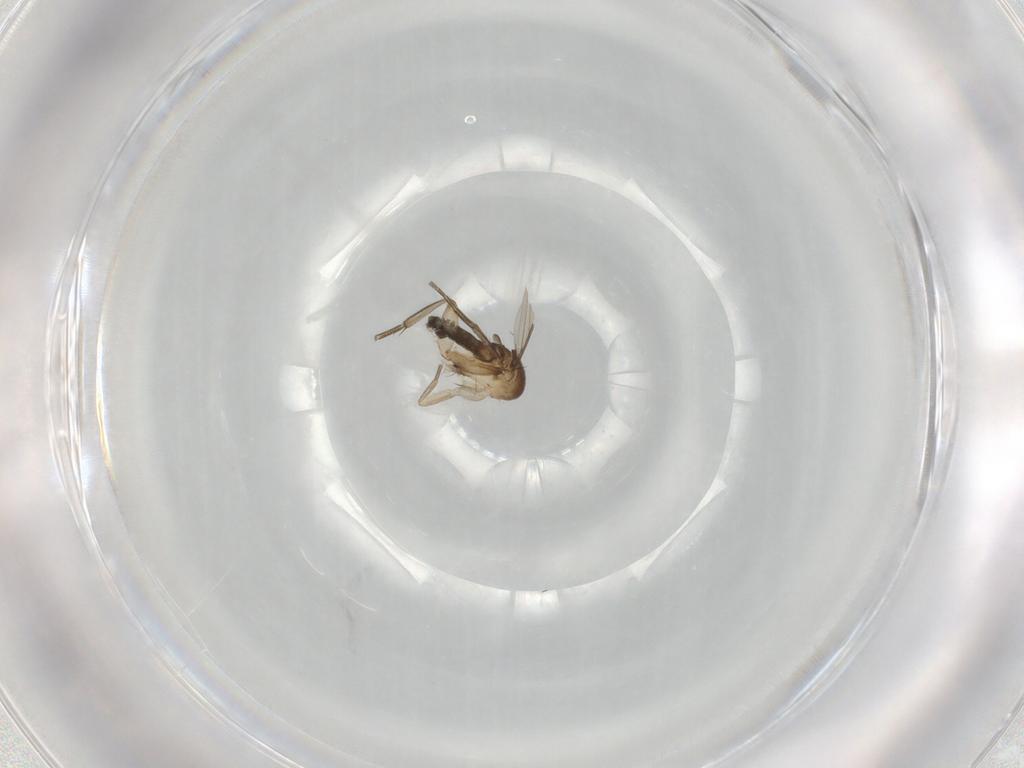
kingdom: Animalia
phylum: Arthropoda
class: Insecta
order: Diptera
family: Phoridae
